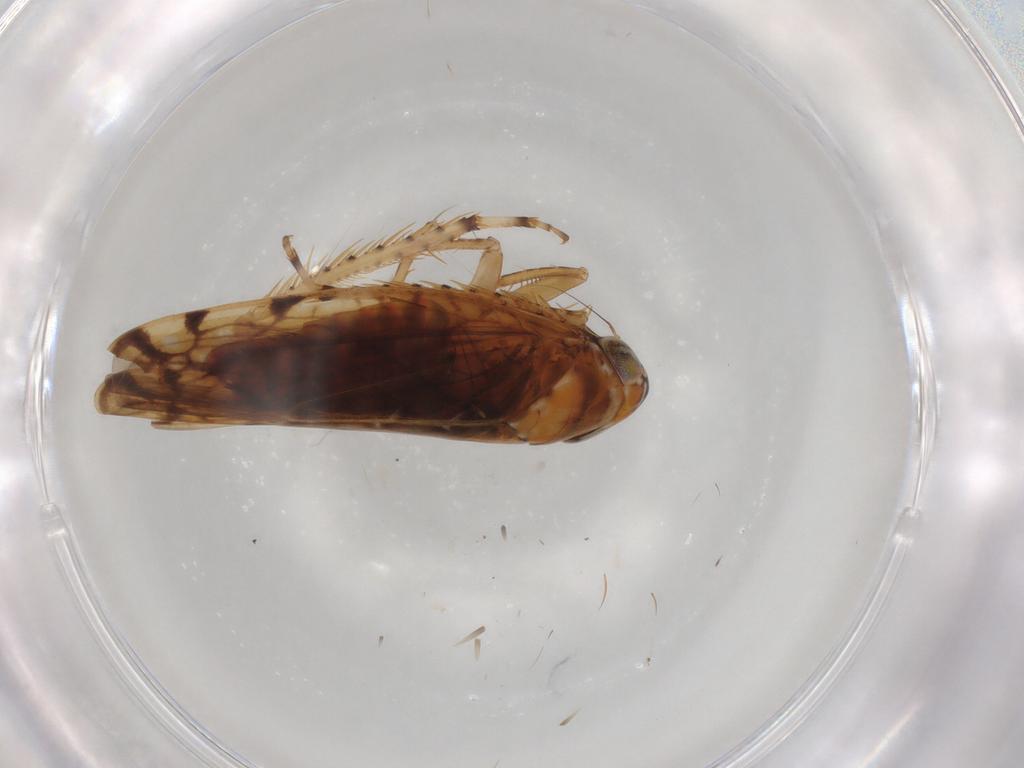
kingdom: Animalia
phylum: Arthropoda
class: Insecta
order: Hemiptera
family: Cicadellidae
